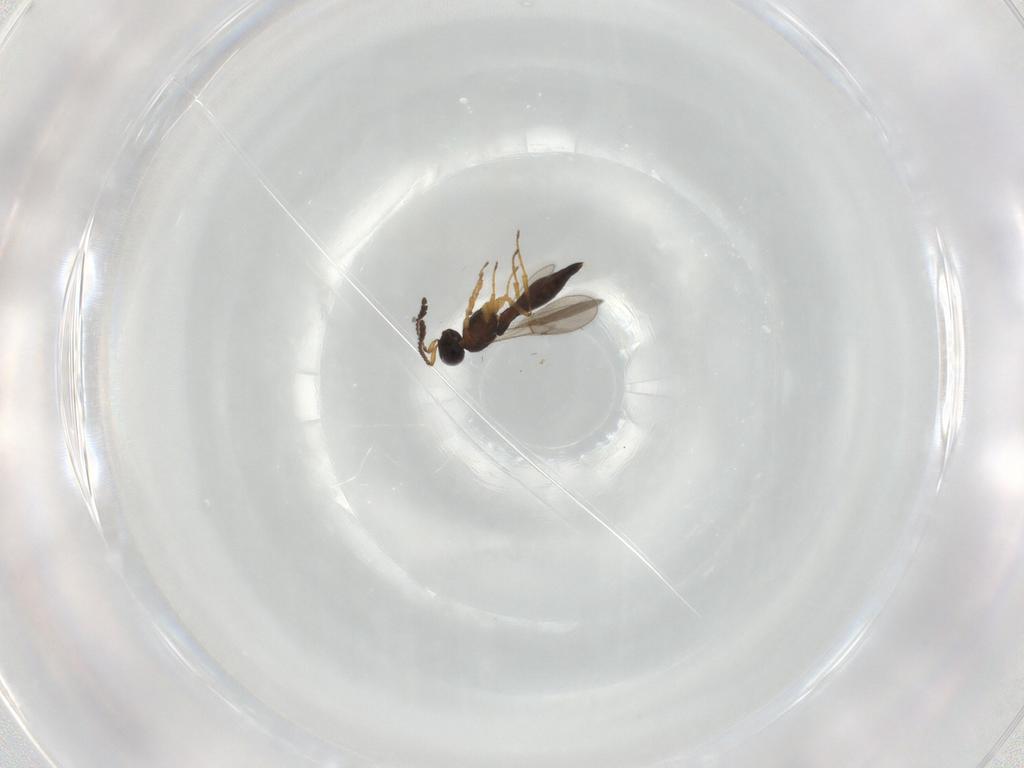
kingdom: Animalia
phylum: Arthropoda
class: Insecta
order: Hymenoptera
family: Scelionidae
